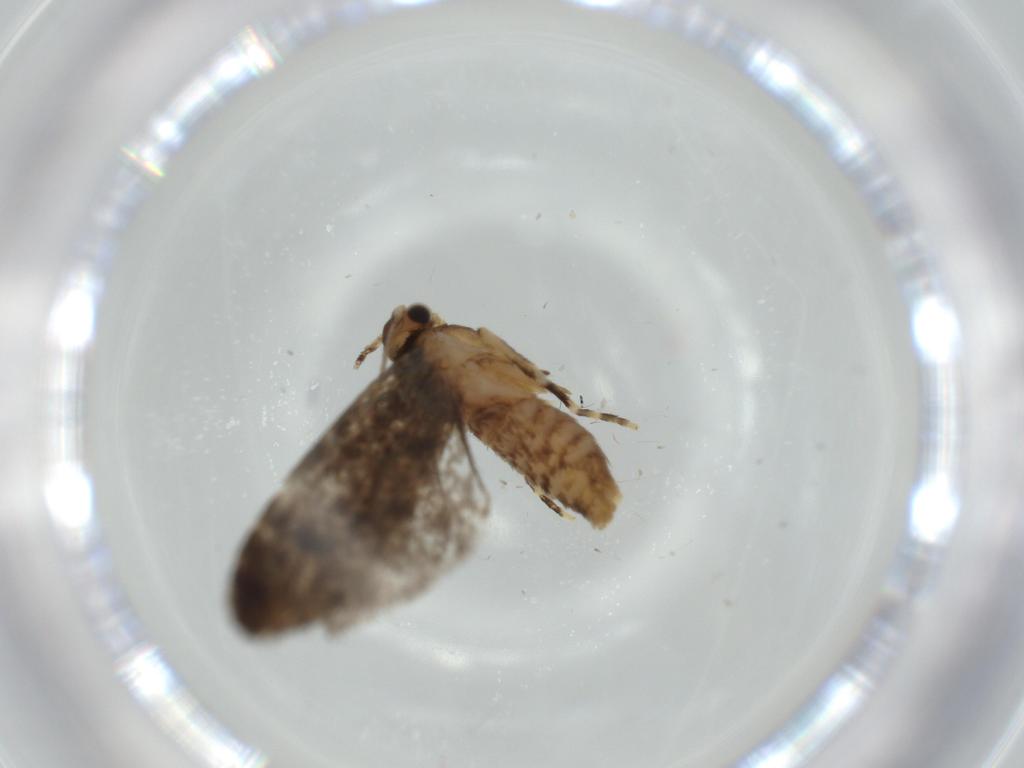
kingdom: Animalia
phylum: Arthropoda
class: Insecta
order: Lepidoptera
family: Tineidae
